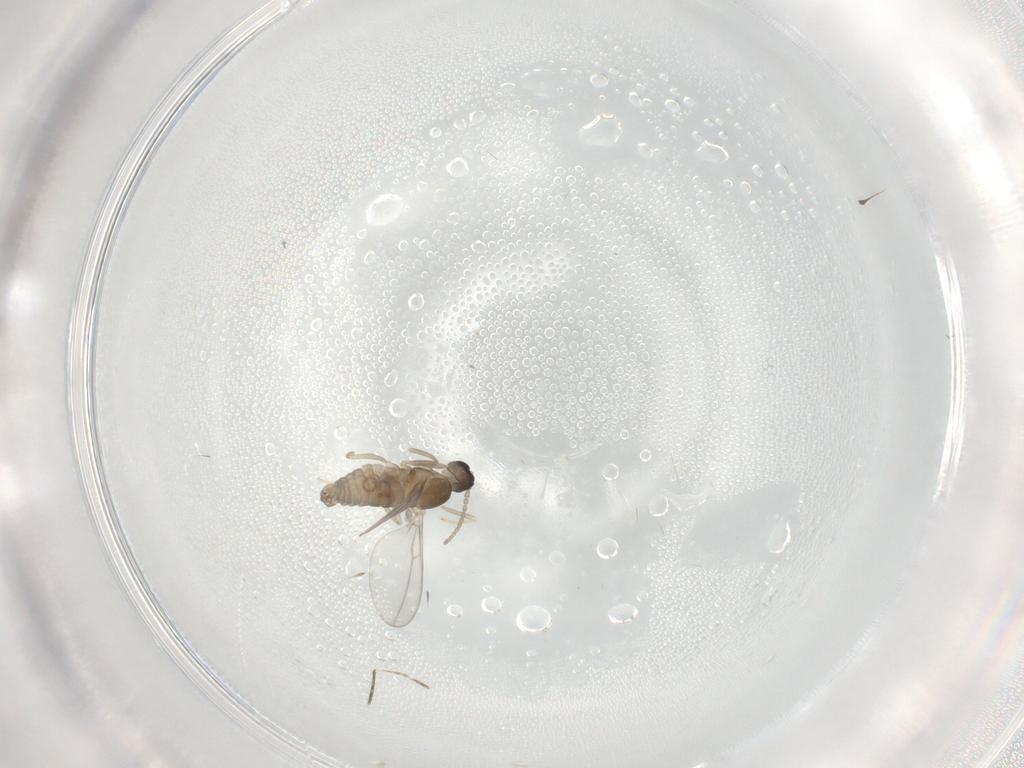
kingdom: Animalia
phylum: Arthropoda
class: Insecta
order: Diptera
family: Cecidomyiidae
